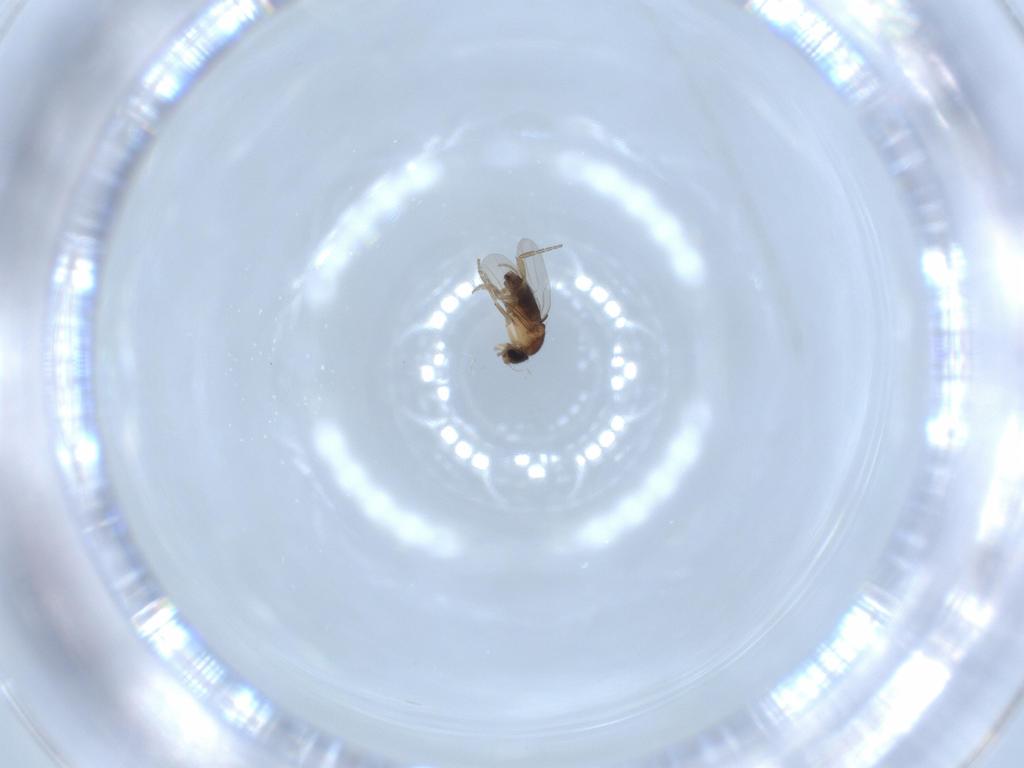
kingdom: Animalia
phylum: Arthropoda
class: Insecta
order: Diptera
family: Phoridae
